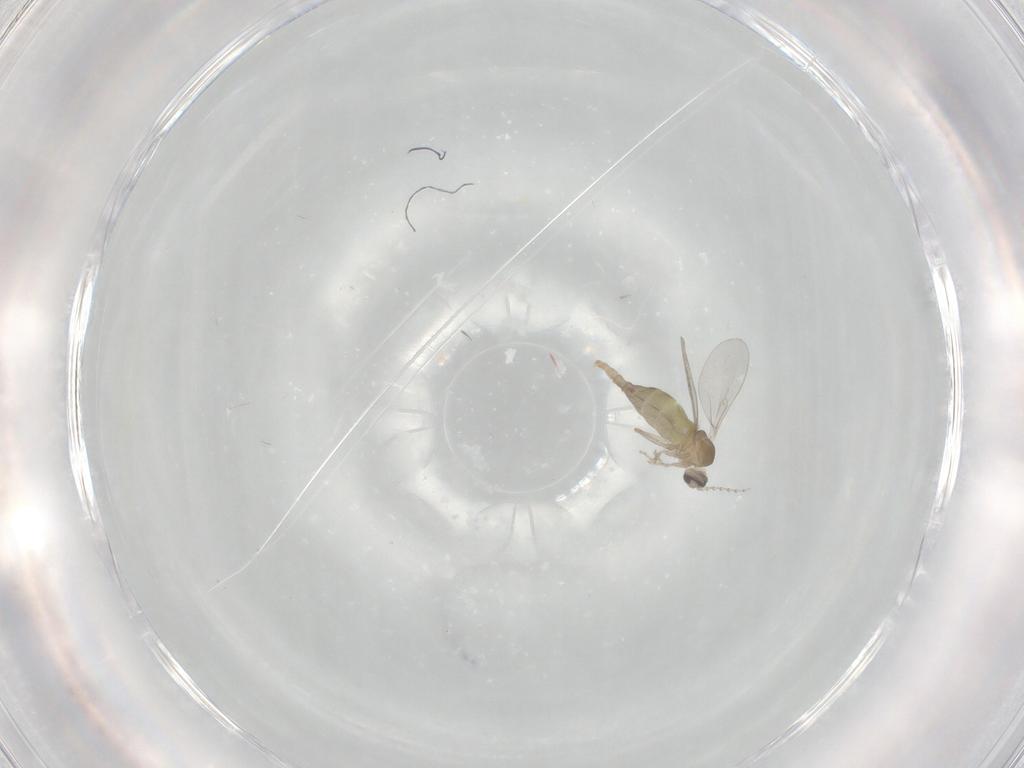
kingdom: Animalia
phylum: Arthropoda
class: Insecta
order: Diptera
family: Cecidomyiidae
